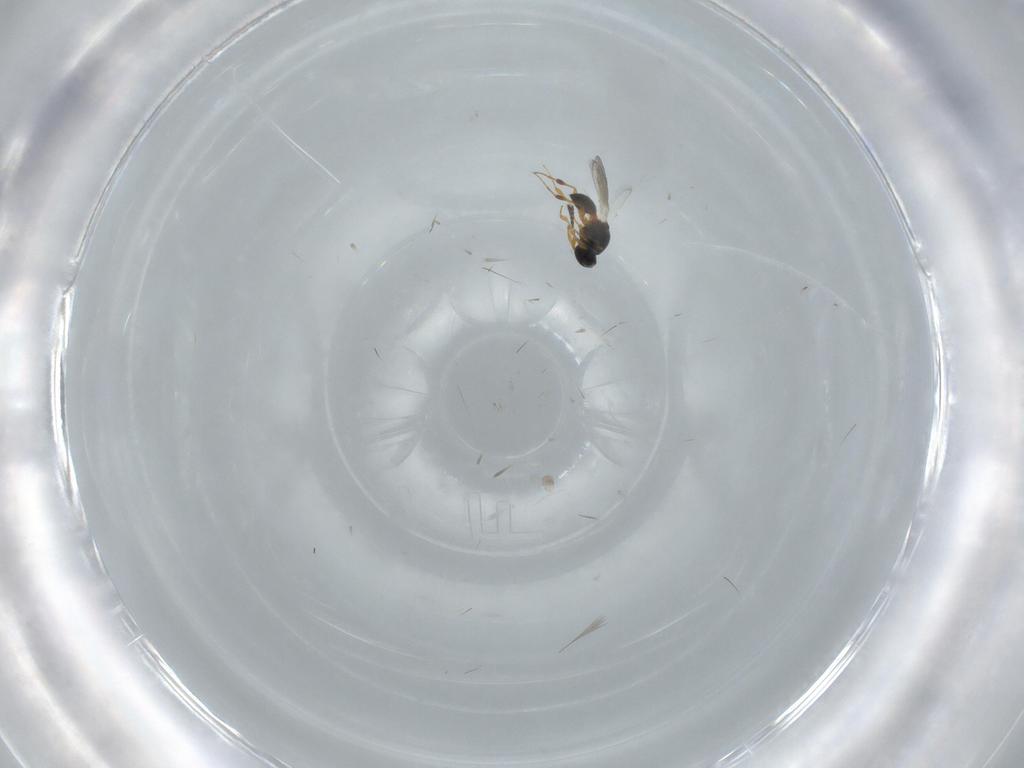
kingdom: Animalia
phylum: Arthropoda
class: Insecta
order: Hymenoptera
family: Platygastridae
